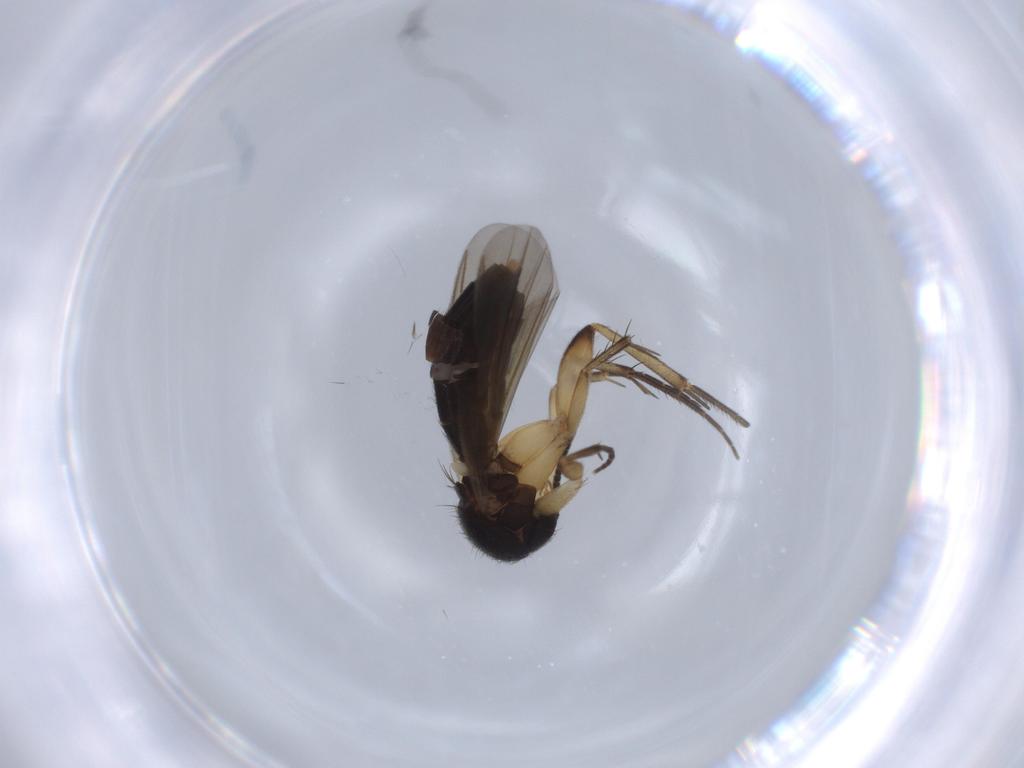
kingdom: Animalia
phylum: Arthropoda
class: Insecta
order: Diptera
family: Mycetophilidae
